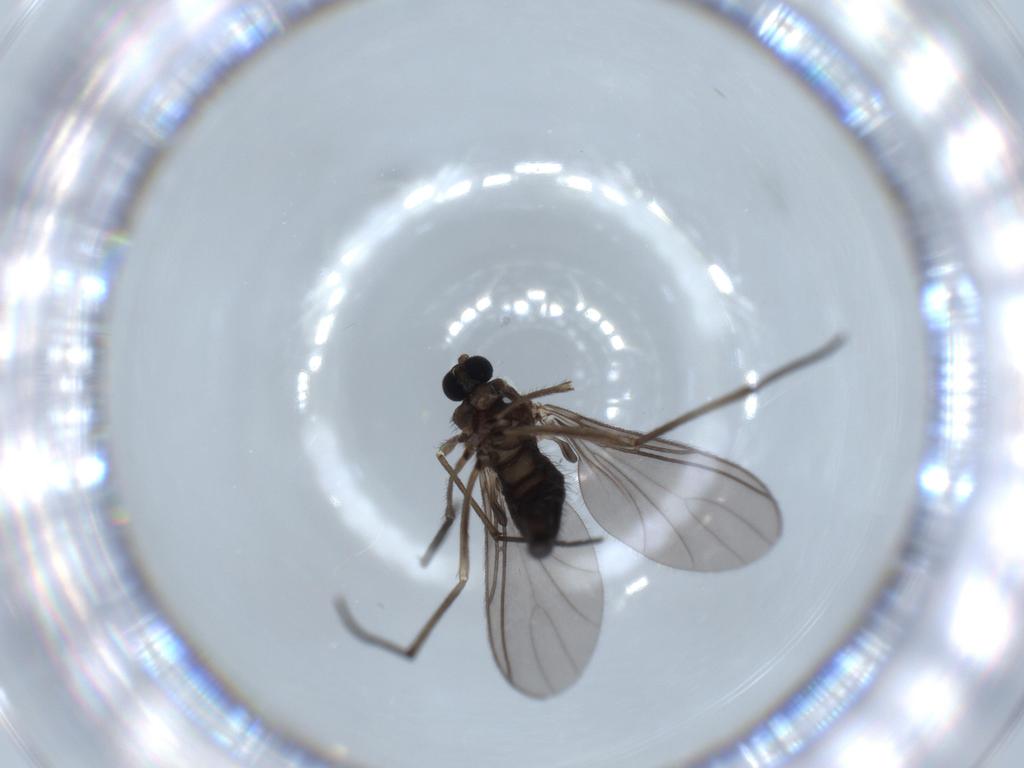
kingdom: Animalia
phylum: Arthropoda
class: Insecta
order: Diptera
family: Sciaridae
